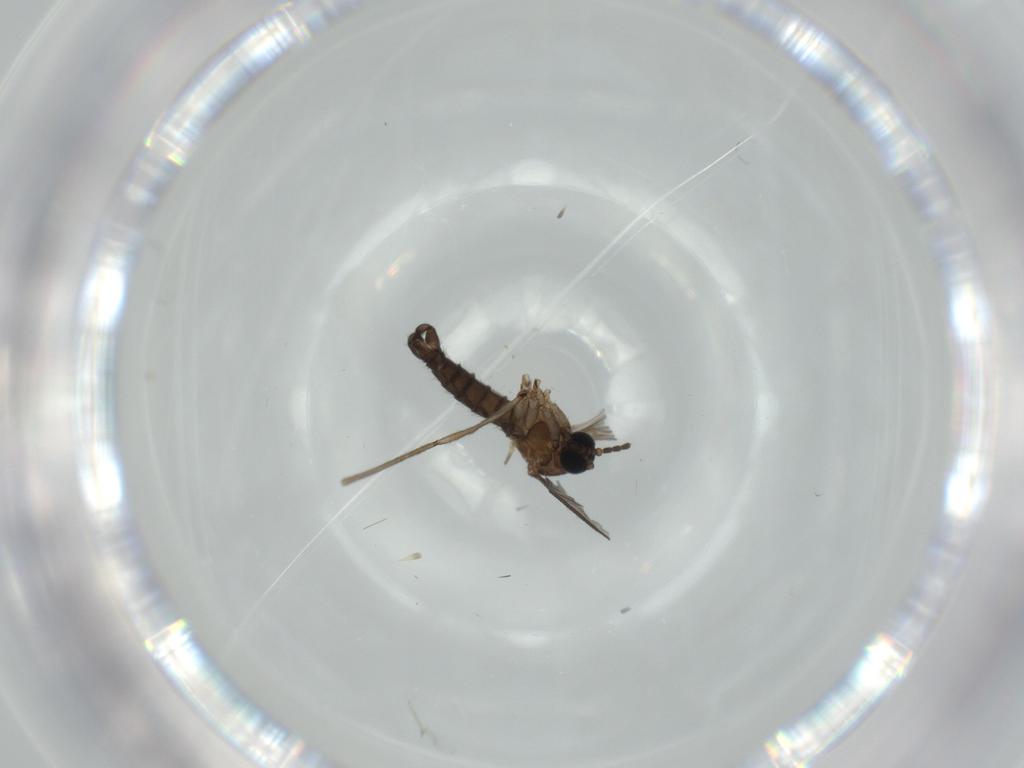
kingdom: Animalia
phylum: Arthropoda
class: Insecta
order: Diptera
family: Sciaridae
